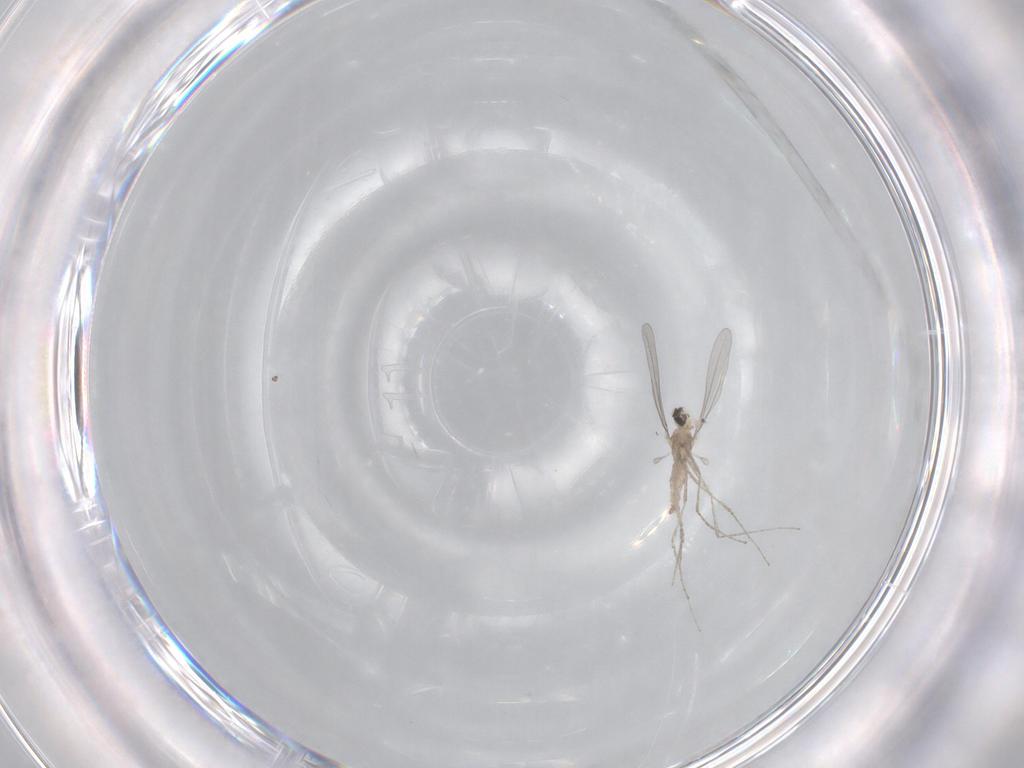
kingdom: Animalia
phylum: Arthropoda
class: Insecta
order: Diptera
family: Cecidomyiidae
